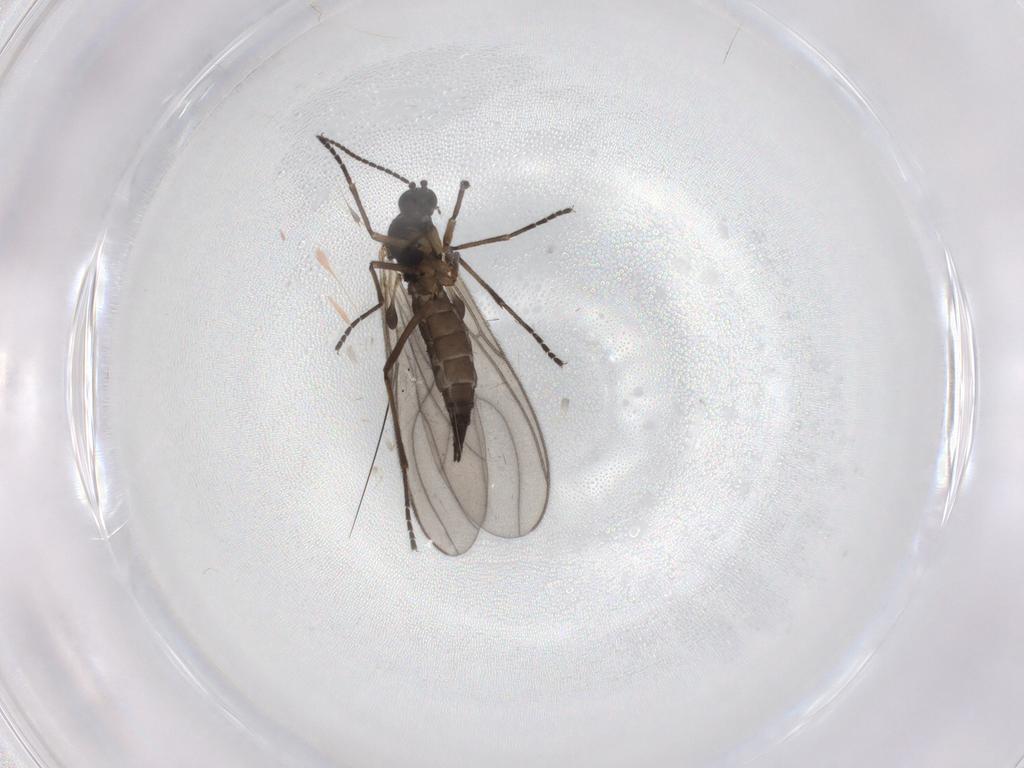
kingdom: Animalia
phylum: Arthropoda
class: Insecta
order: Diptera
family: Sciaridae
